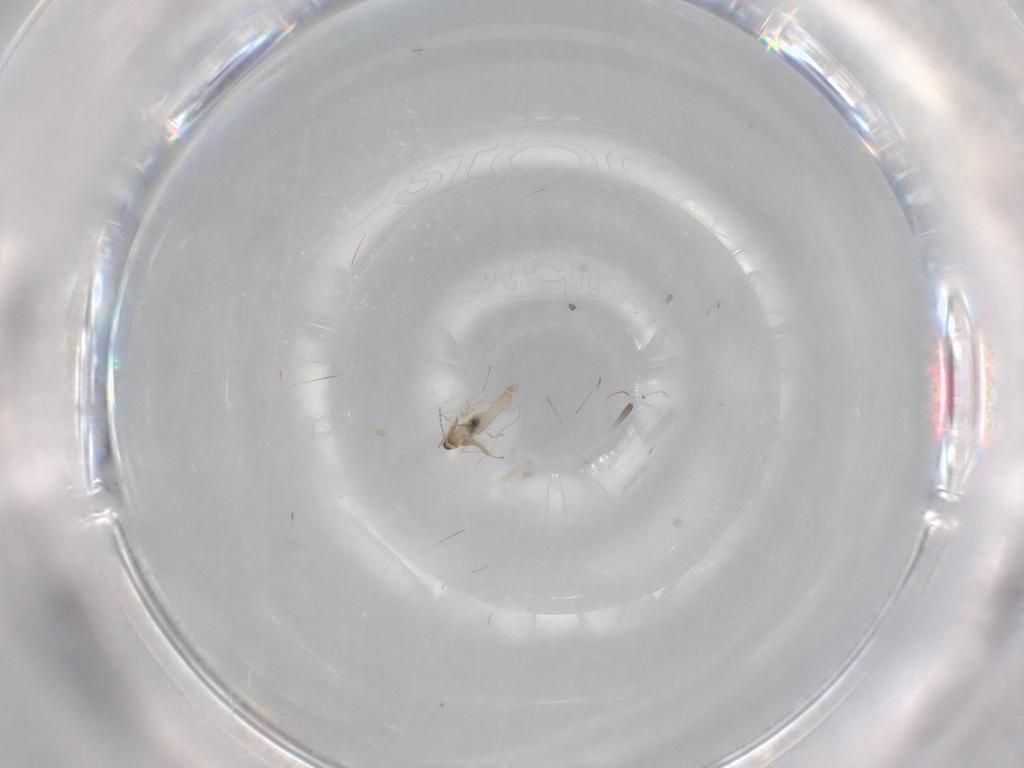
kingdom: Animalia
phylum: Arthropoda
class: Insecta
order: Diptera
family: Cecidomyiidae
